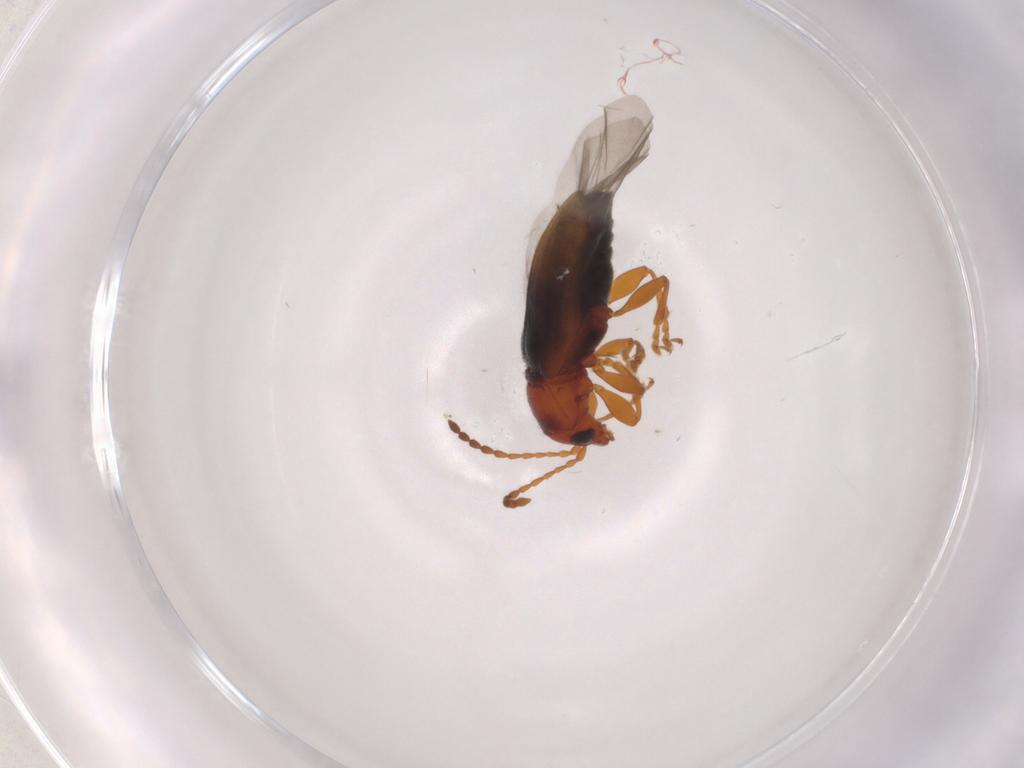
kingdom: Animalia
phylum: Arthropoda
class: Insecta
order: Coleoptera
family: Chrysomelidae
